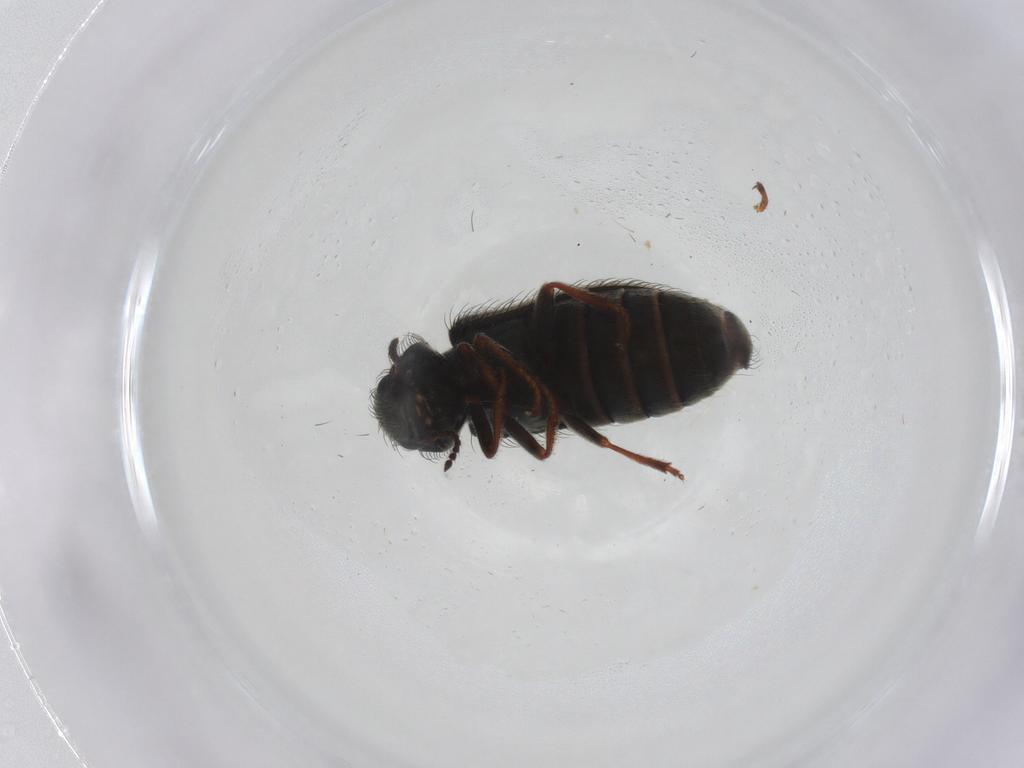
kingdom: Animalia
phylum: Arthropoda
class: Insecta
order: Coleoptera
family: Melyridae
